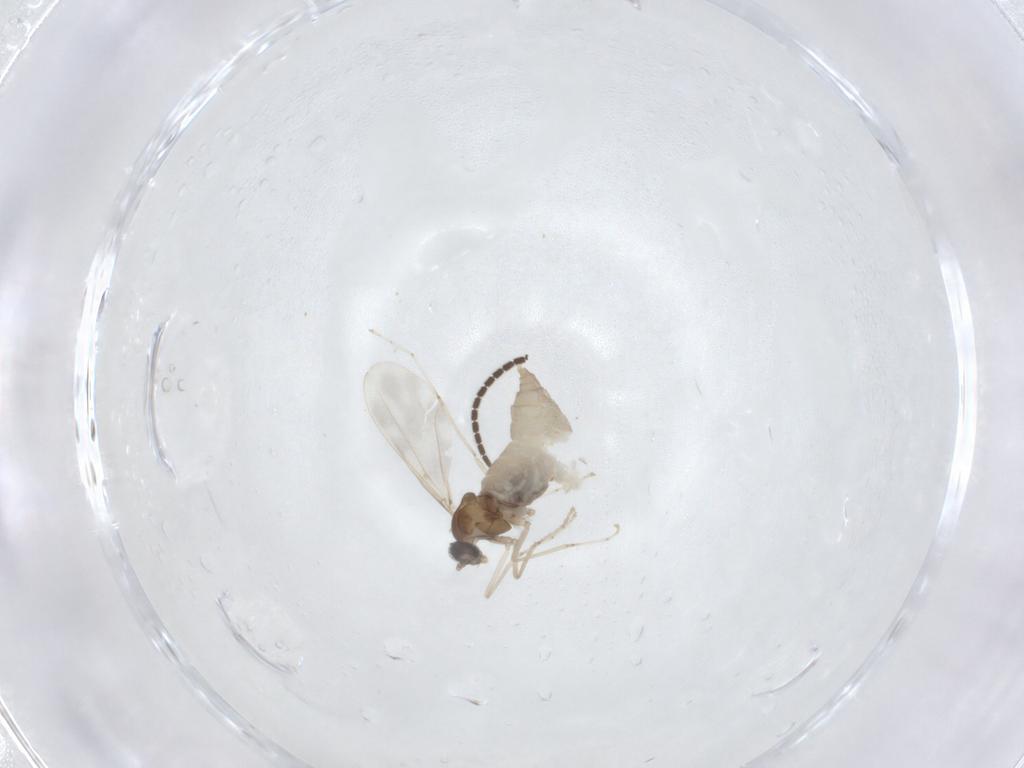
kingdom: Animalia
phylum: Arthropoda
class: Insecta
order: Diptera
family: Cecidomyiidae
